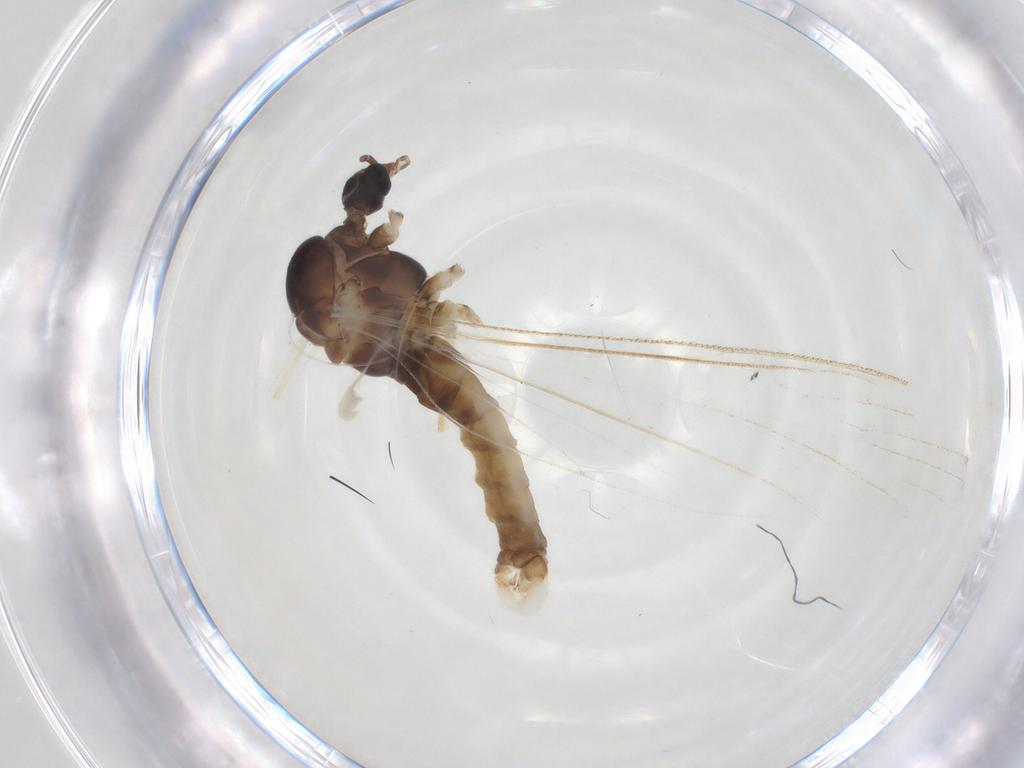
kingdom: Animalia
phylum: Arthropoda
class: Insecta
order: Diptera
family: Limoniidae
